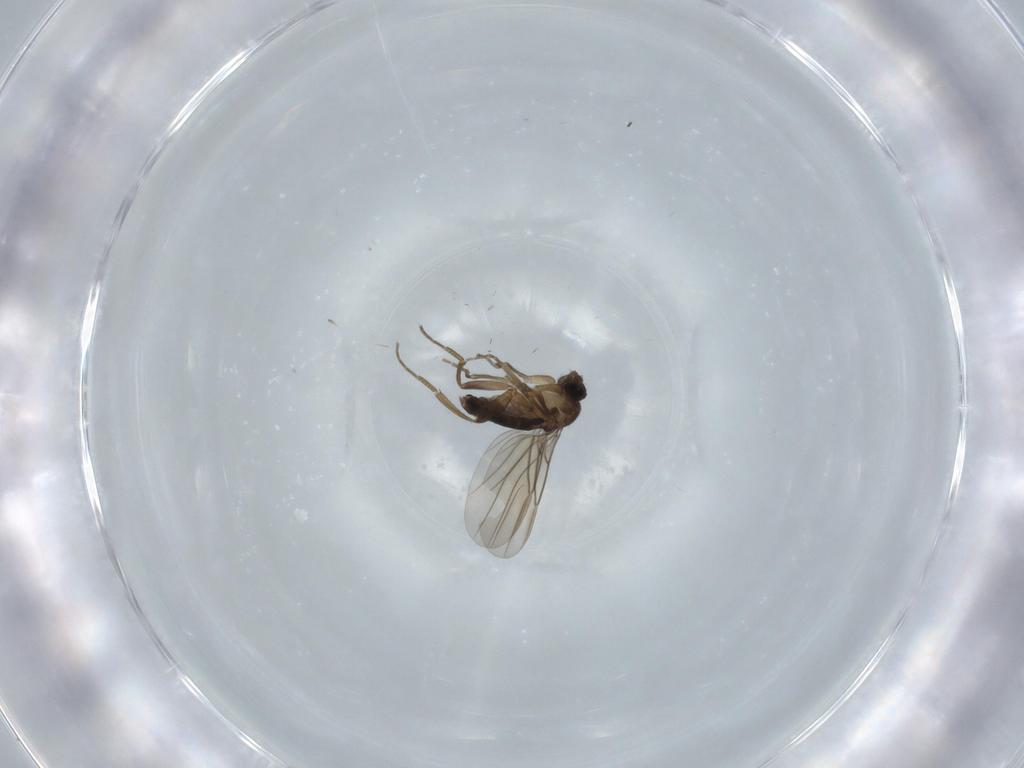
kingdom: Animalia
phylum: Arthropoda
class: Insecta
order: Diptera
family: Phoridae
